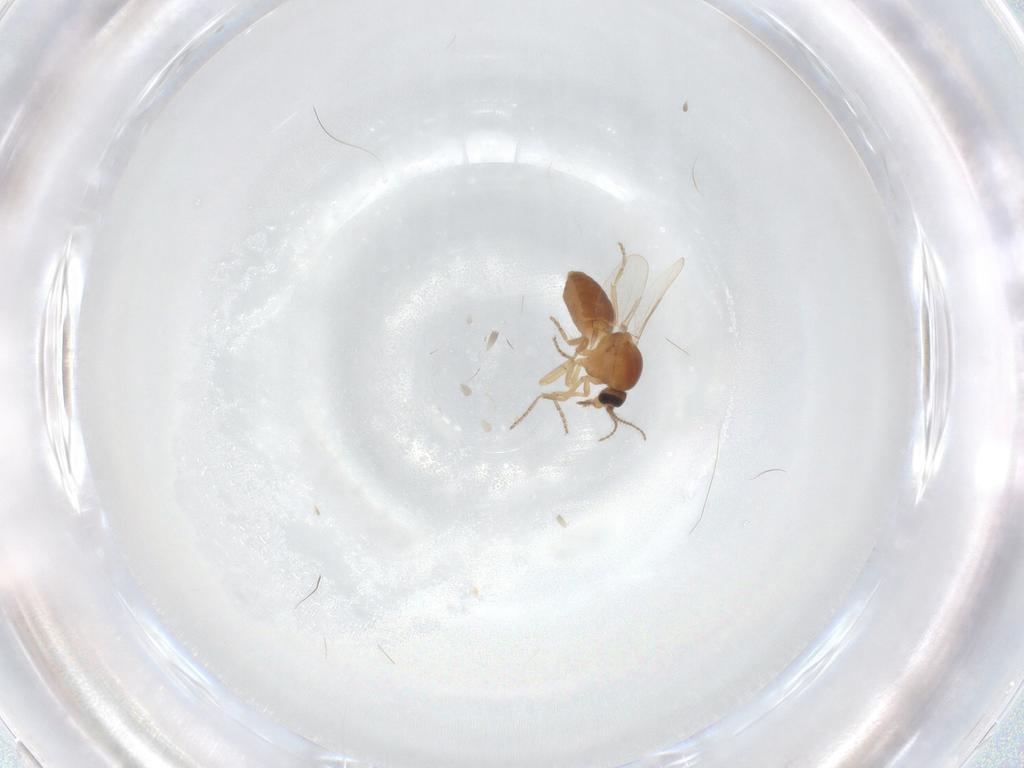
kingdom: Animalia
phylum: Arthropoda
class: Insecta
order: Diptera
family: Ceratopogonidae
